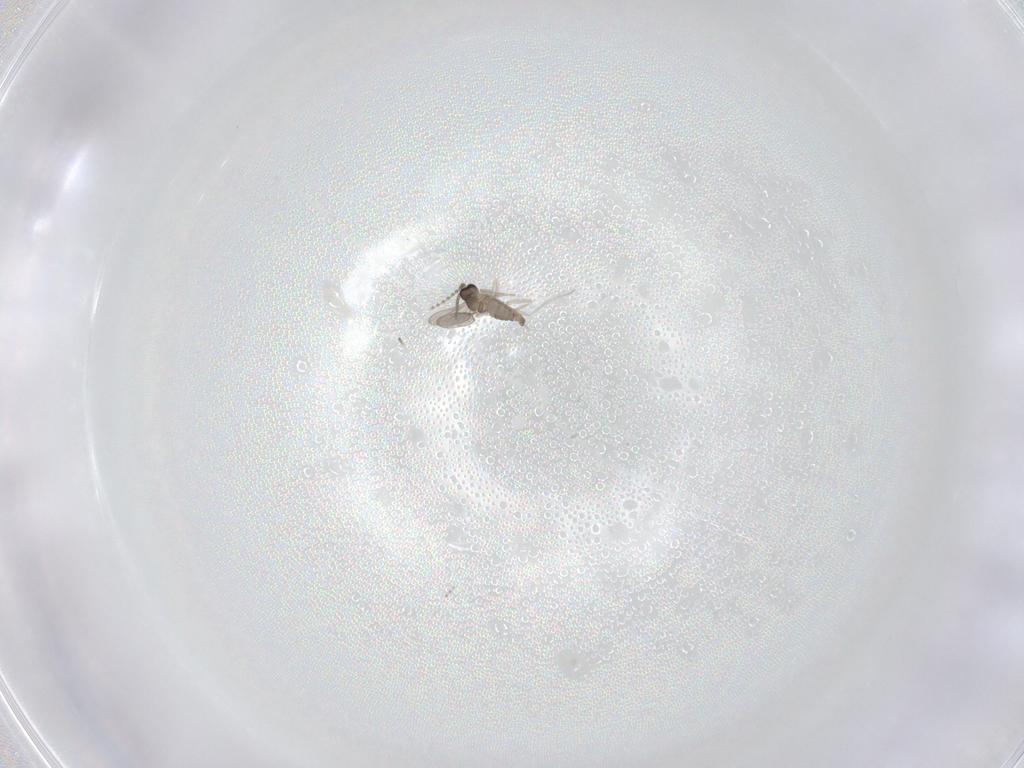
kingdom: Animalia
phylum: Arthropoda
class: Insecta
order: Diptera
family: Cecidomyiidae
